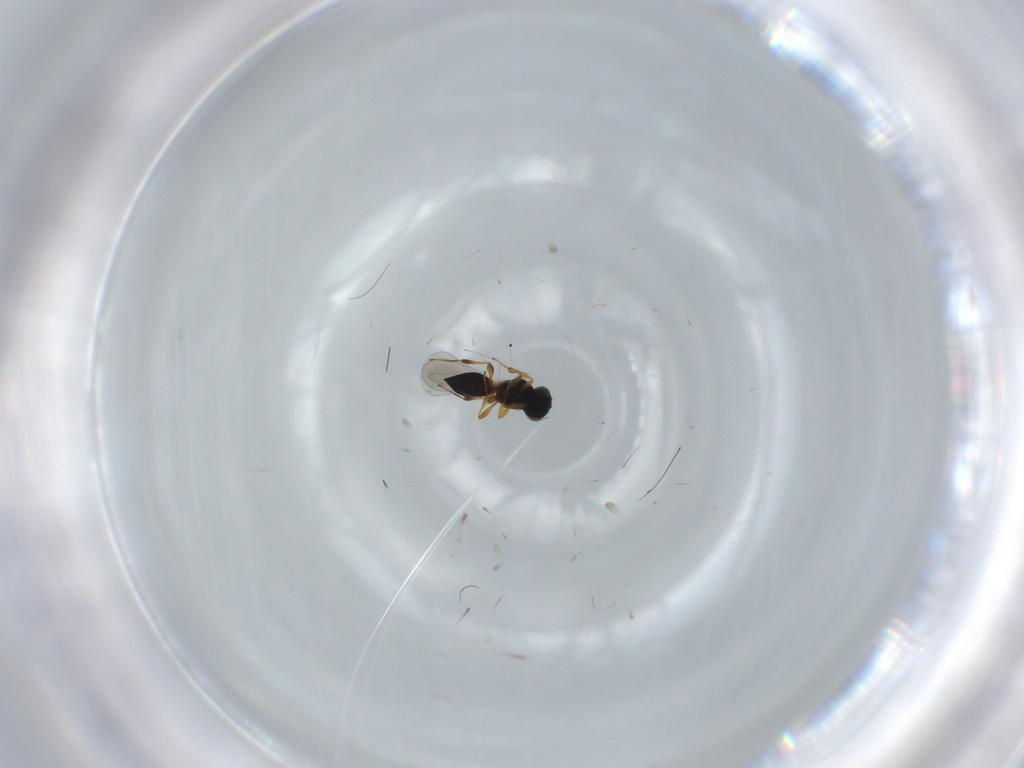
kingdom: Animalia
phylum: Arthropoda
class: Insecta
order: Hymenoptera
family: Platygastridae
